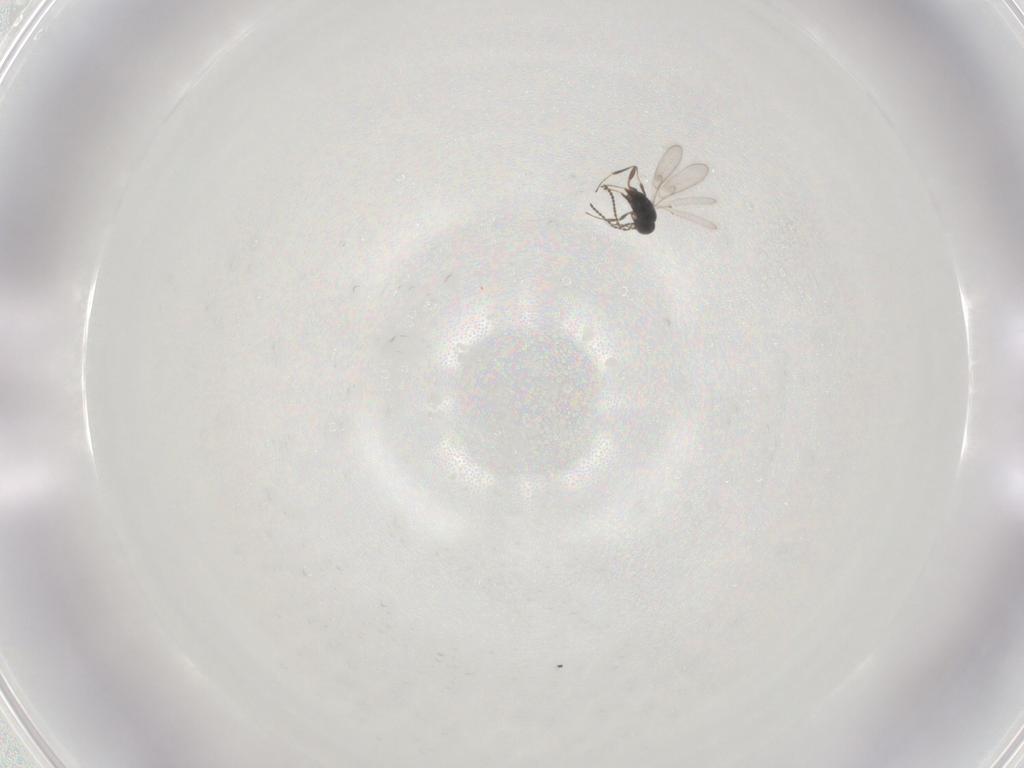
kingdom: Animalia
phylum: Arthropoda
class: Insecta
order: Hymenoptera
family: Scelionidae
